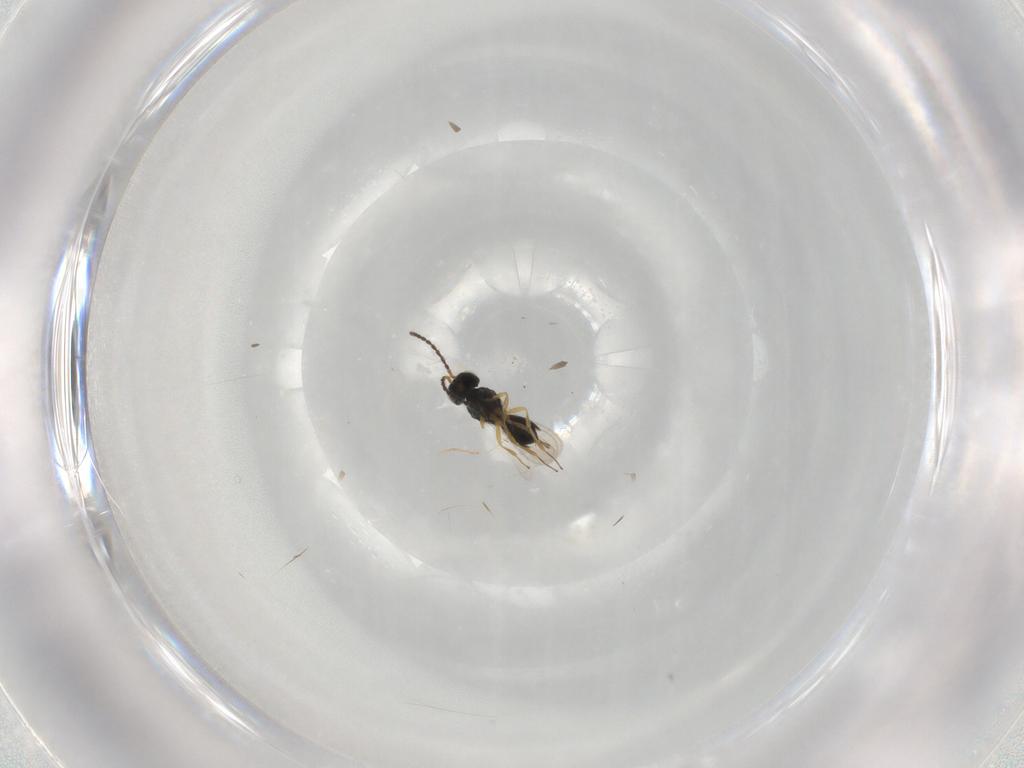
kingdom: Animalia
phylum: Arthropoda
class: Insecta
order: Hymenoptera
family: Scelionidae
